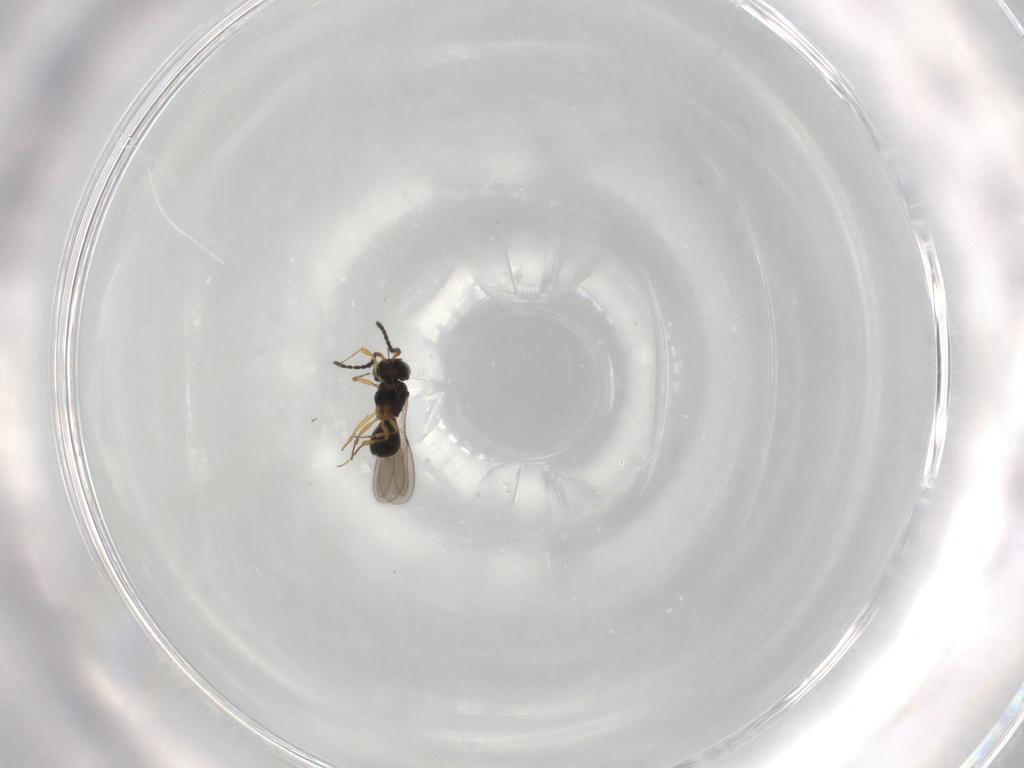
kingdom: Animalia
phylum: Arthropoda
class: Insecta
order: Hymenoptera
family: Scelionidae
